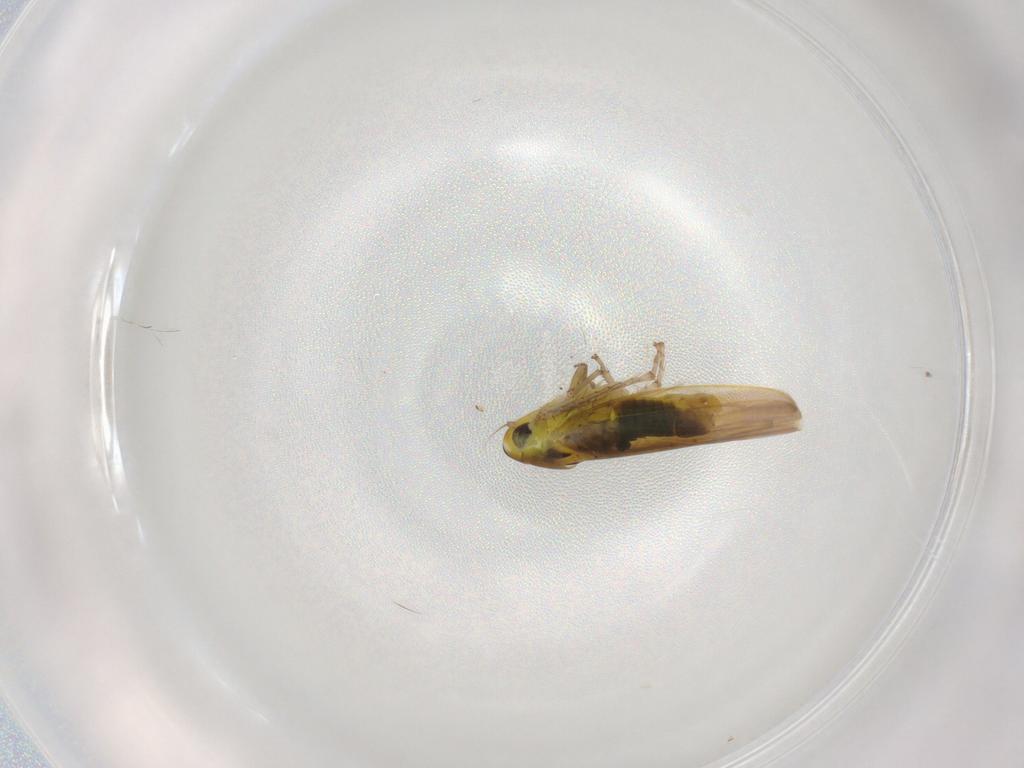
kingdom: Animalia
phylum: Arthropoda
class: Insecta
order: Hemiptera
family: Cicadellidae
